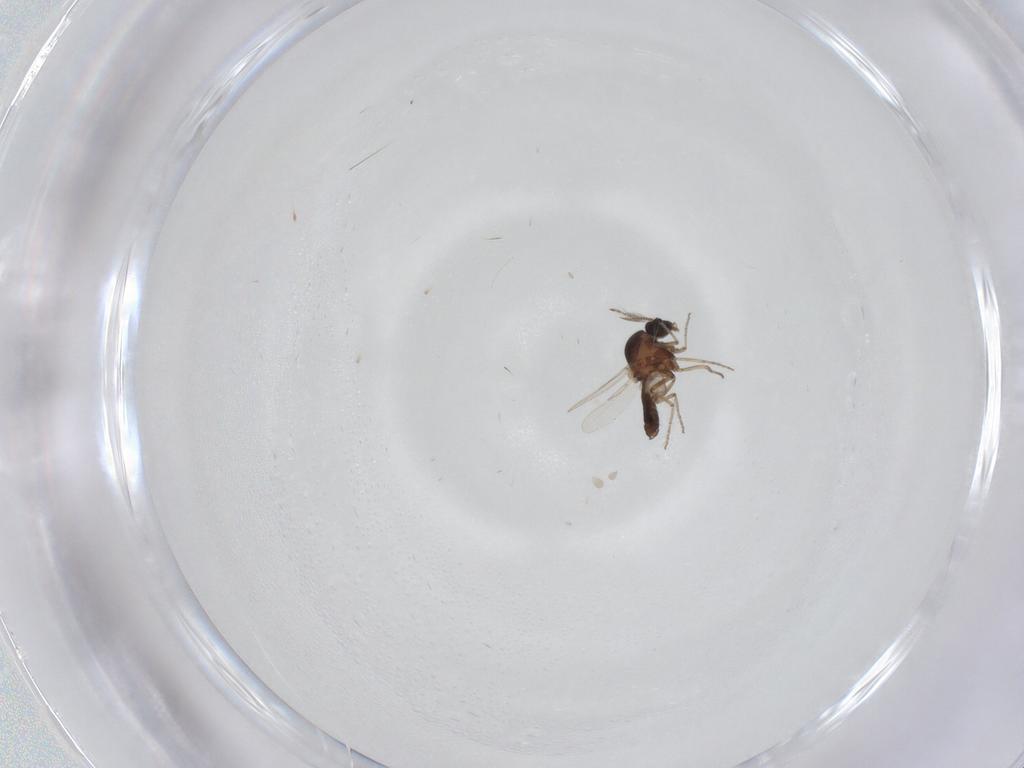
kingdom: Animalia
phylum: Arthropoda
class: Insecta
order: Diptera
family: Ceratopogonidae
